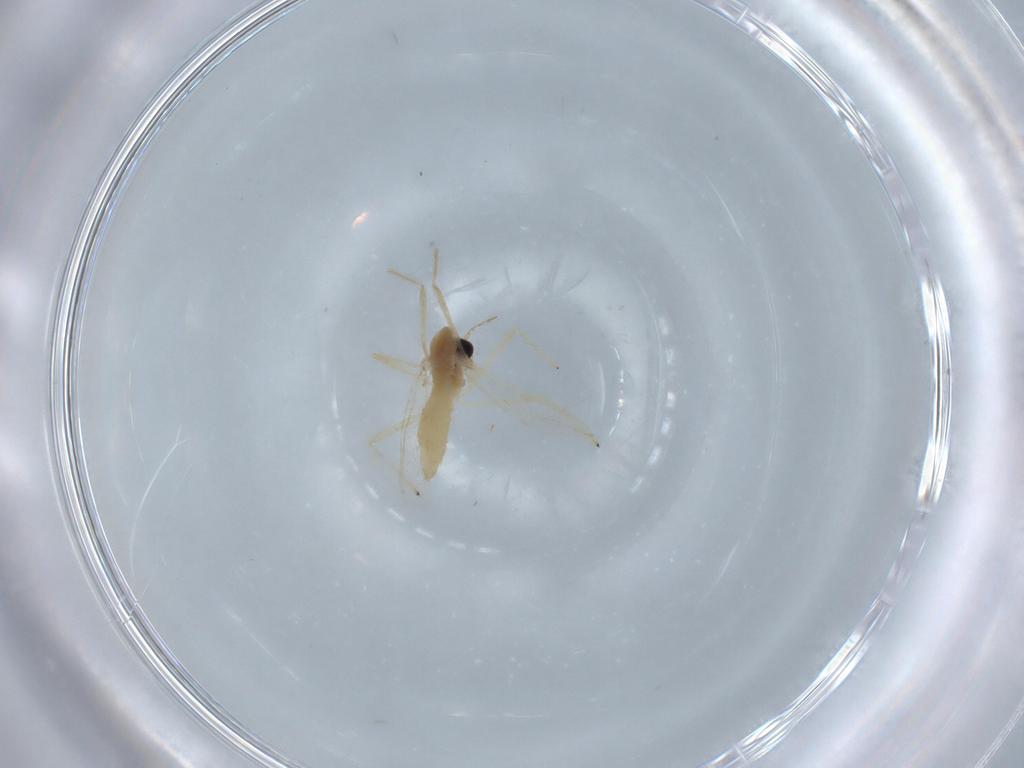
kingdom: Animalia
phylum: Arthropoda
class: Insecta
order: Diptera
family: Chironomidae
